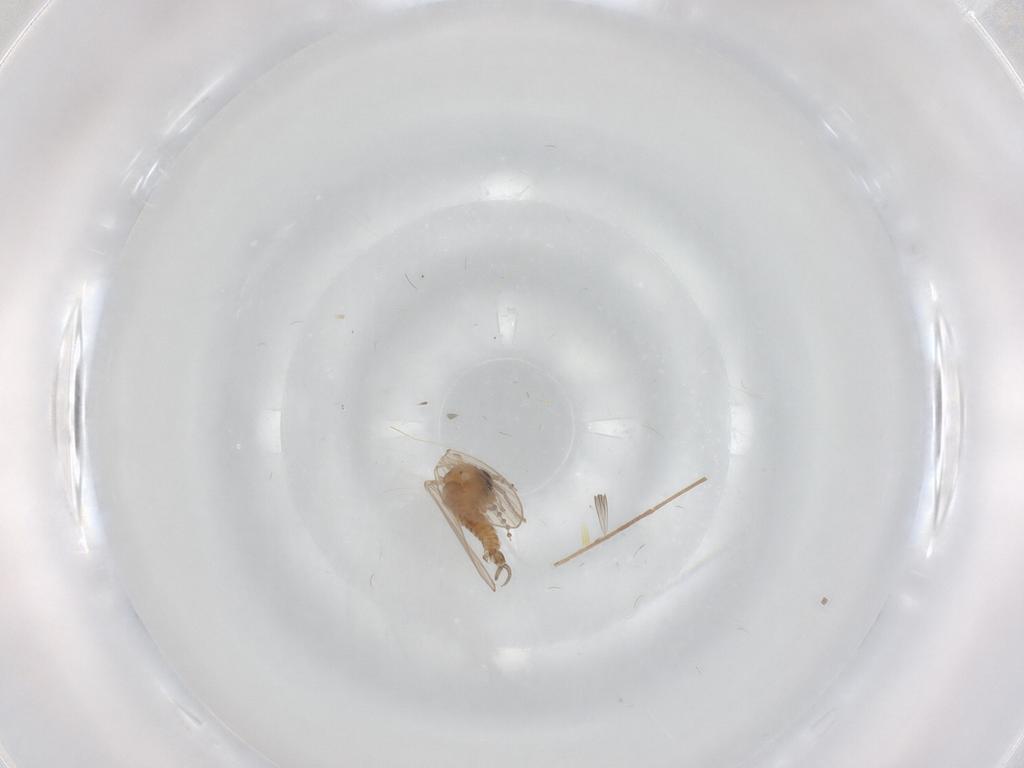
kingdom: Animalia
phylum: Arthropoda
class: Insecta
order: Diptera
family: Psychodidae
